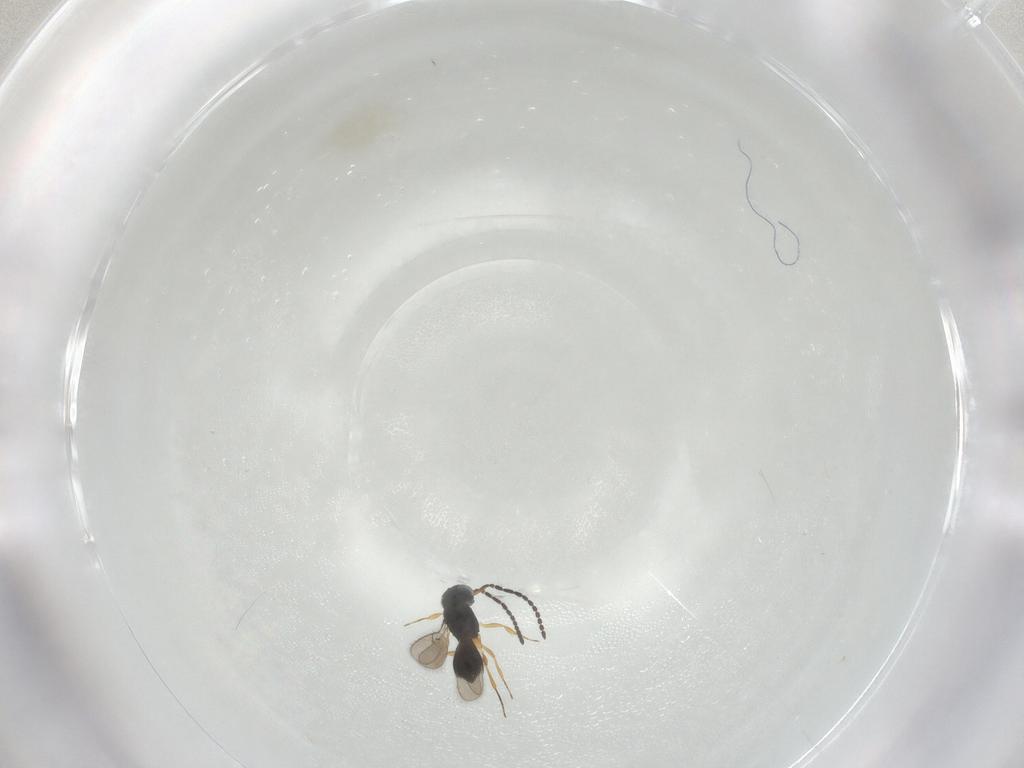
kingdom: Animalia
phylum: Arthropoda
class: Insecta
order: Hymenoptera
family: Scelionidae
